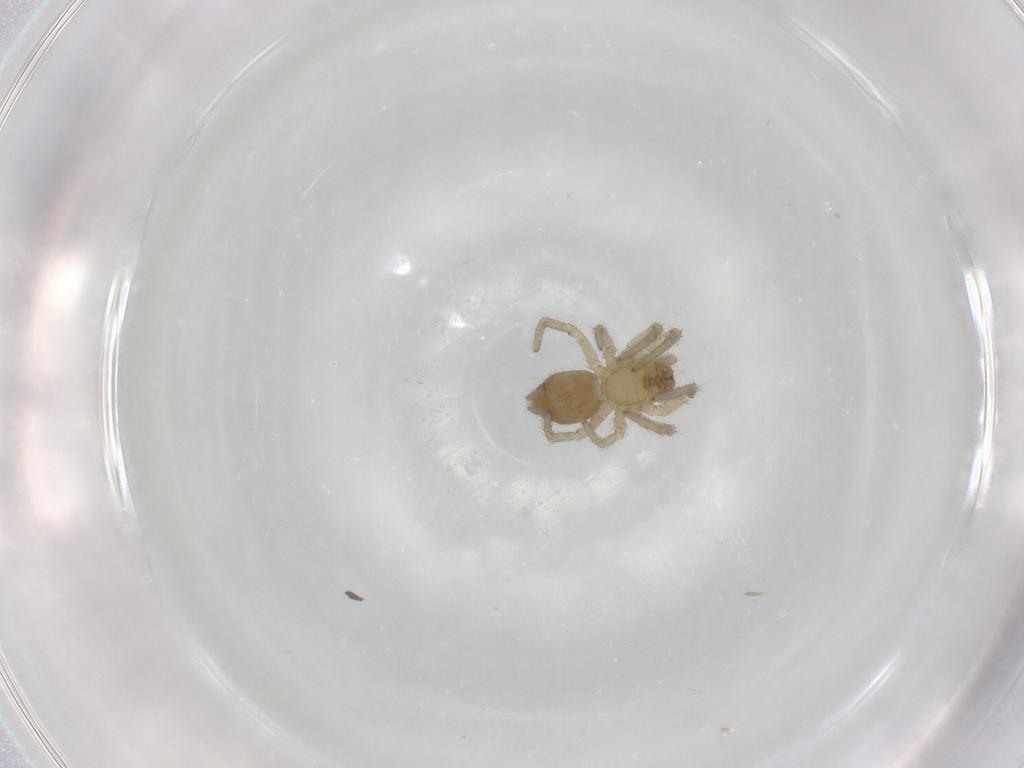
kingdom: Animalia
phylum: Arthropoda
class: Arachnida
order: Araneae
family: Amaurobiidae
